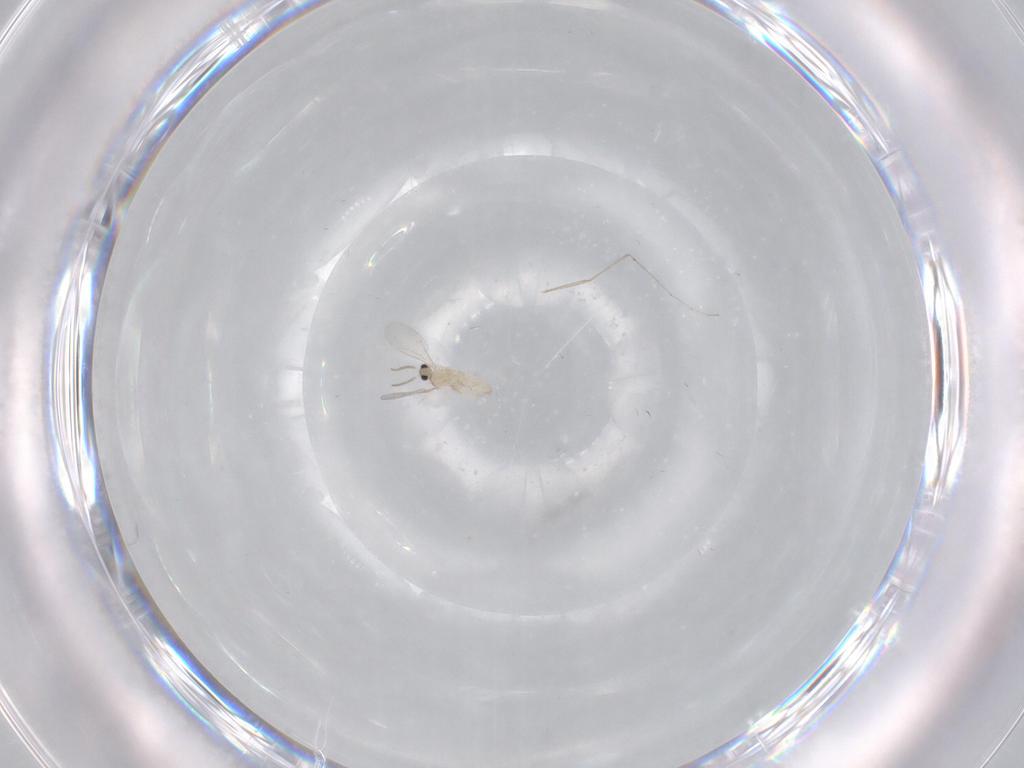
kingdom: Animalia
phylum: Arthropoda
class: Insecta
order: Diptera
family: Cecidomyiidae
